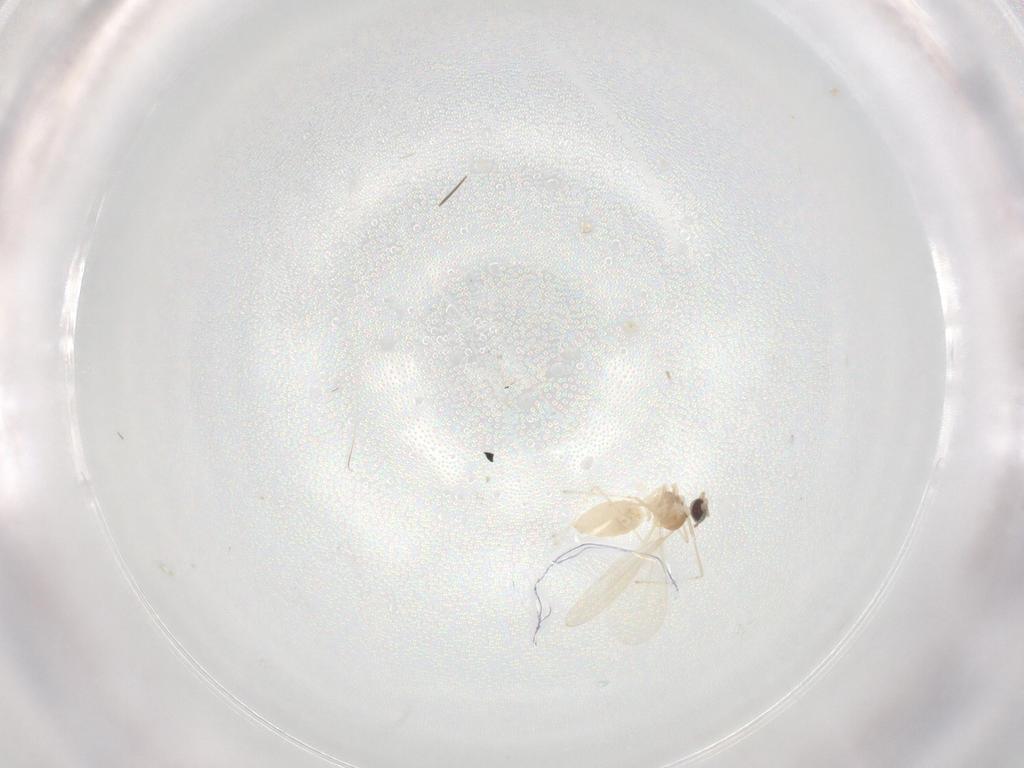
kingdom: Animalia
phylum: Arthropoda
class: Insecta
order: Diptera
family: Cecidomyiidae
